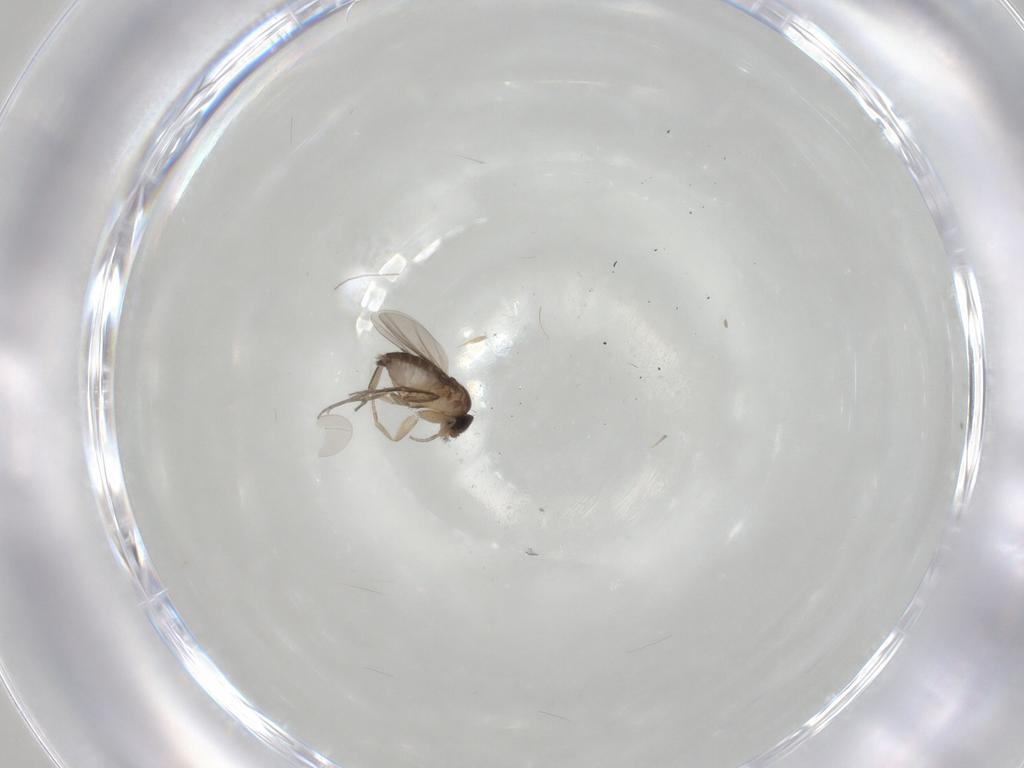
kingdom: Animalia
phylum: Arthropoda
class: Insecta
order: Diptera
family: Phoridae
